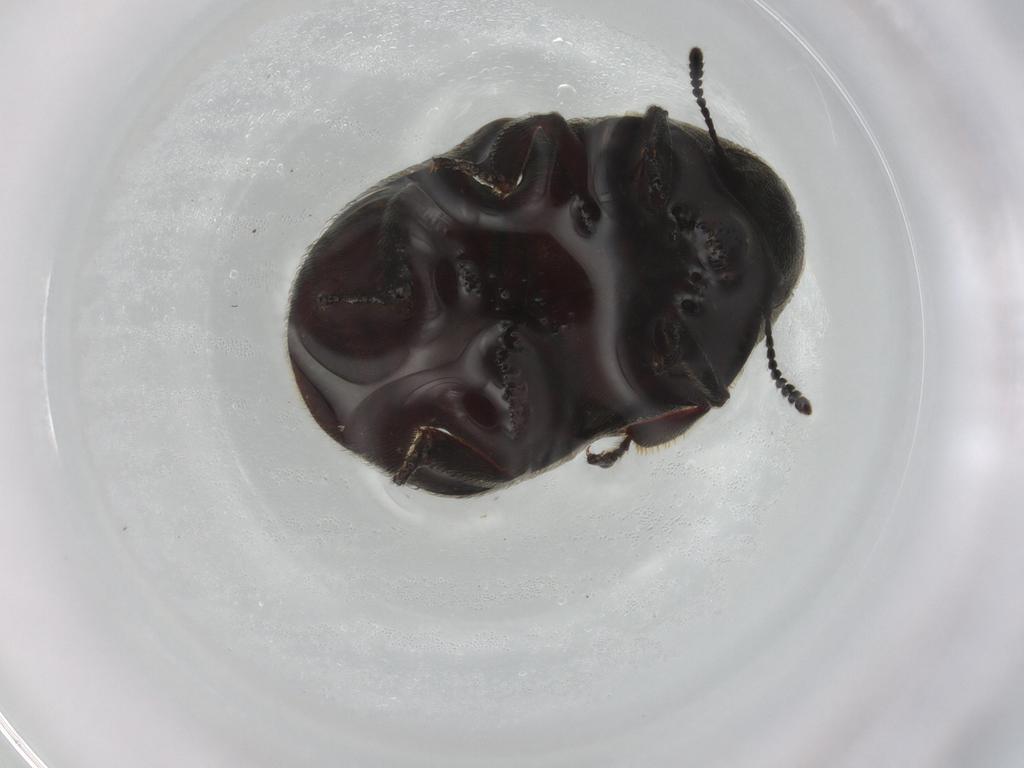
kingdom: Animalia
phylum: Arthropoda
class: Insecta
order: Coleoptera
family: Byrrhidae
